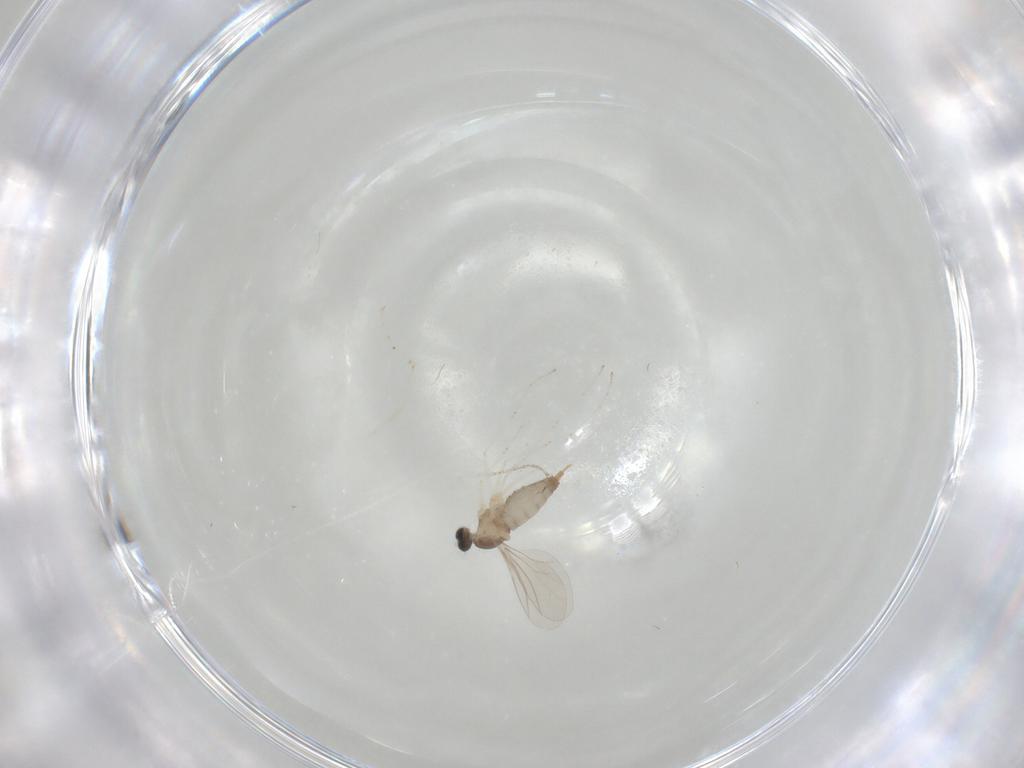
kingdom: Animalia
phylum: Arthropoda
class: Insecta
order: Diptera
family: Cecidomyiidae
